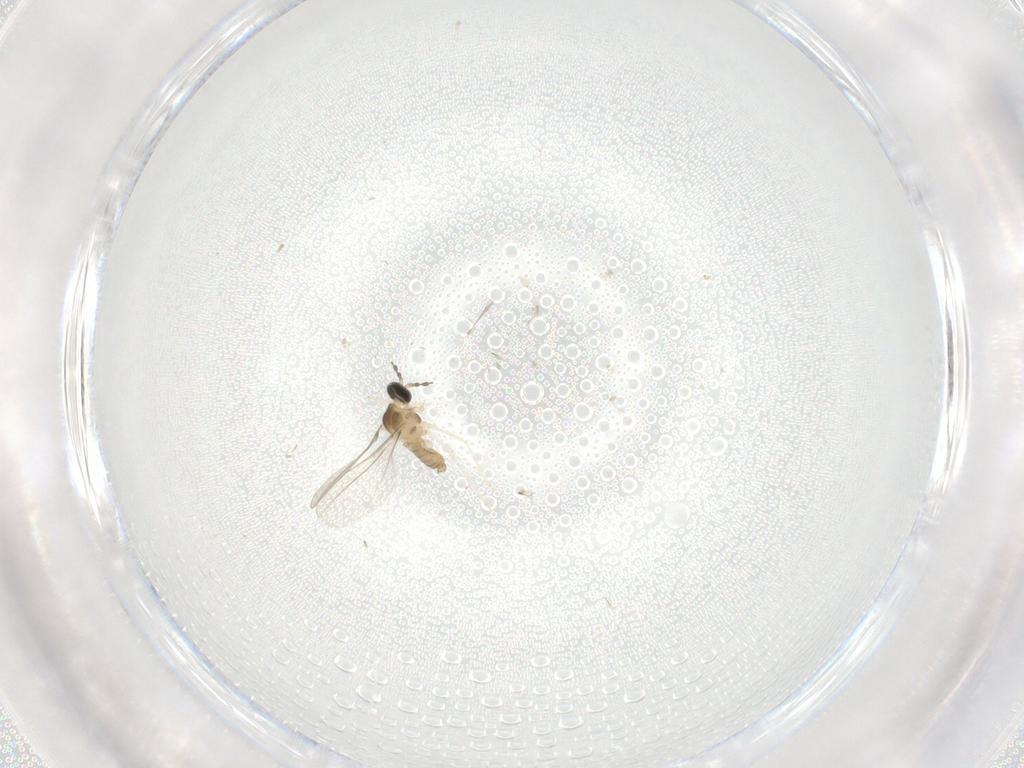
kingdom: Animalia
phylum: Arthropoda
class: Insecta
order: Diptera
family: Cecidomyiidae
